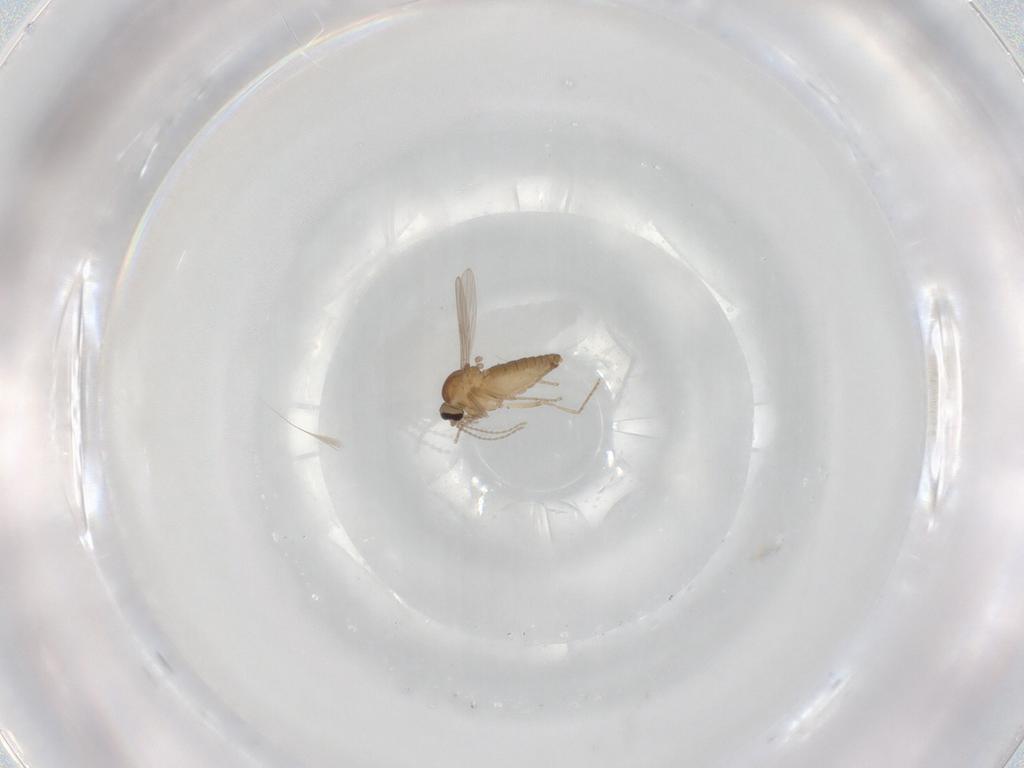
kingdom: Animalia
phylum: Arthropoda
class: Insecta
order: Diptera
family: Ceratopogonidae
